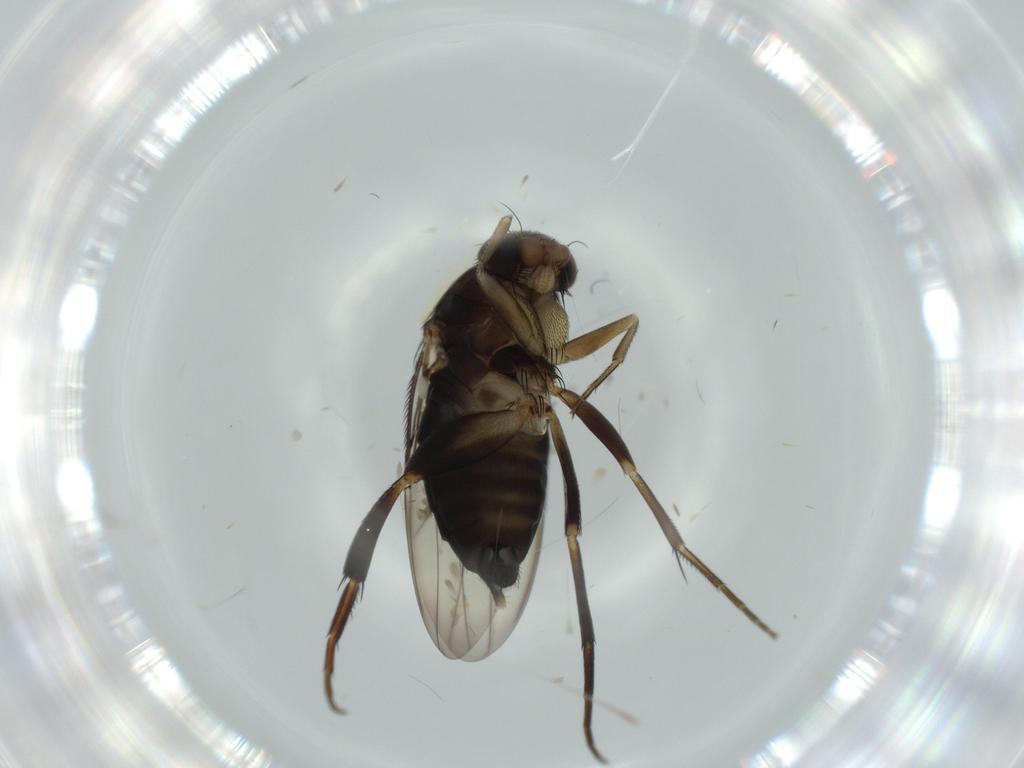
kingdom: Animalia
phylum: Arthropoda
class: Insecta
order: Diptera
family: Phoridae
